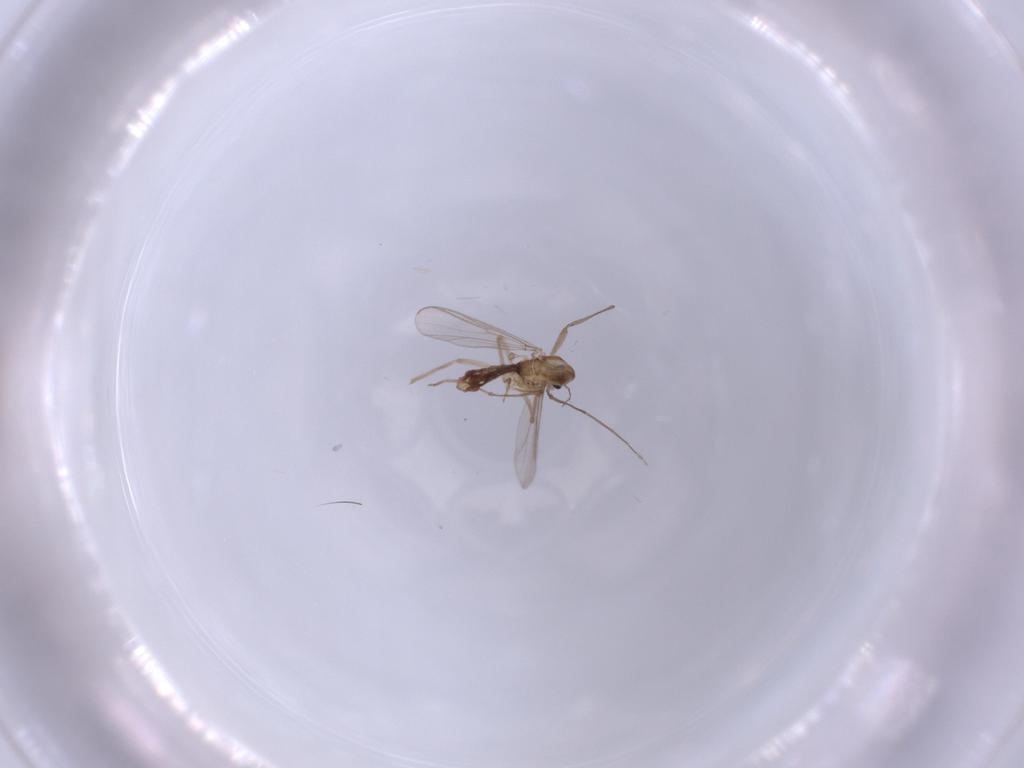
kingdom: Animalia
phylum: Arthropoda
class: Insecta
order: Diptera
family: Chironomidae
